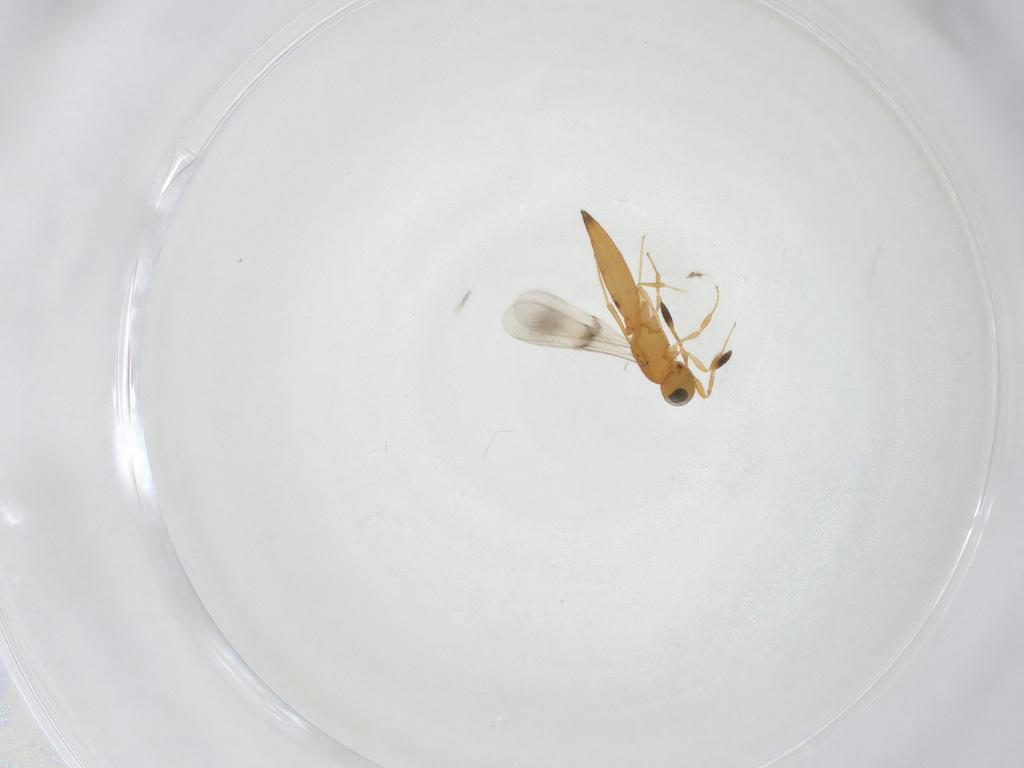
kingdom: Animalia
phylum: Arthropoda
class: Insecta
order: Hymenoptera
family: Scelionidae
